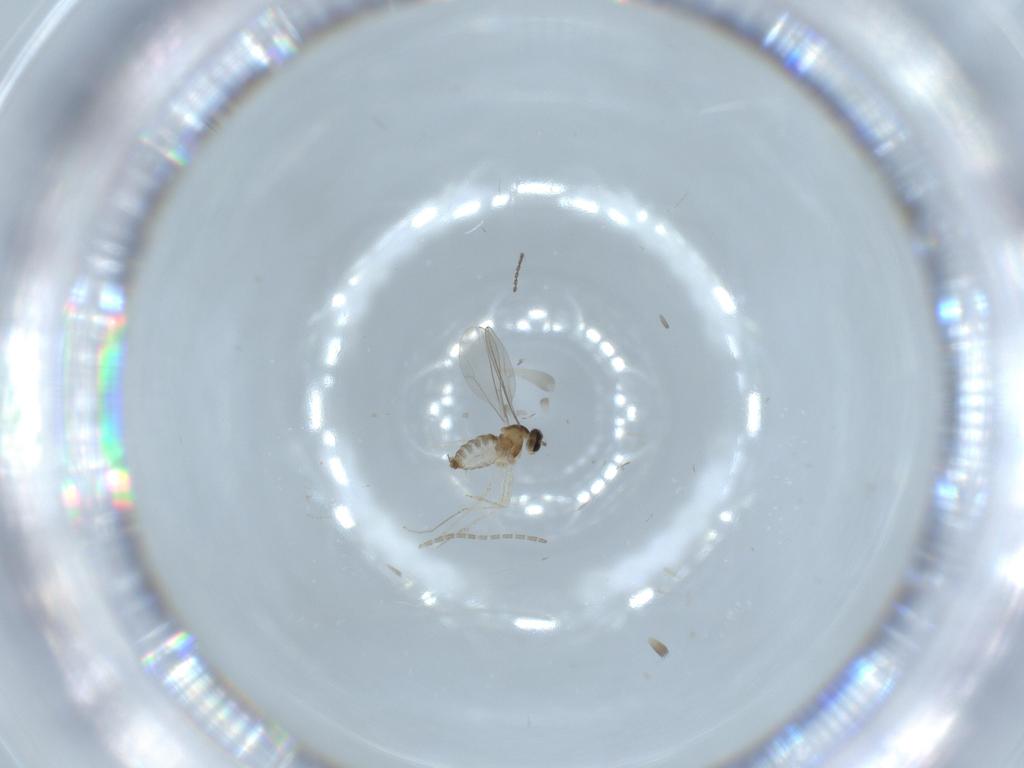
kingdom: Animalia
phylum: Arthropoda
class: Insecta
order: Diptera
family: Cecidomyiidae
